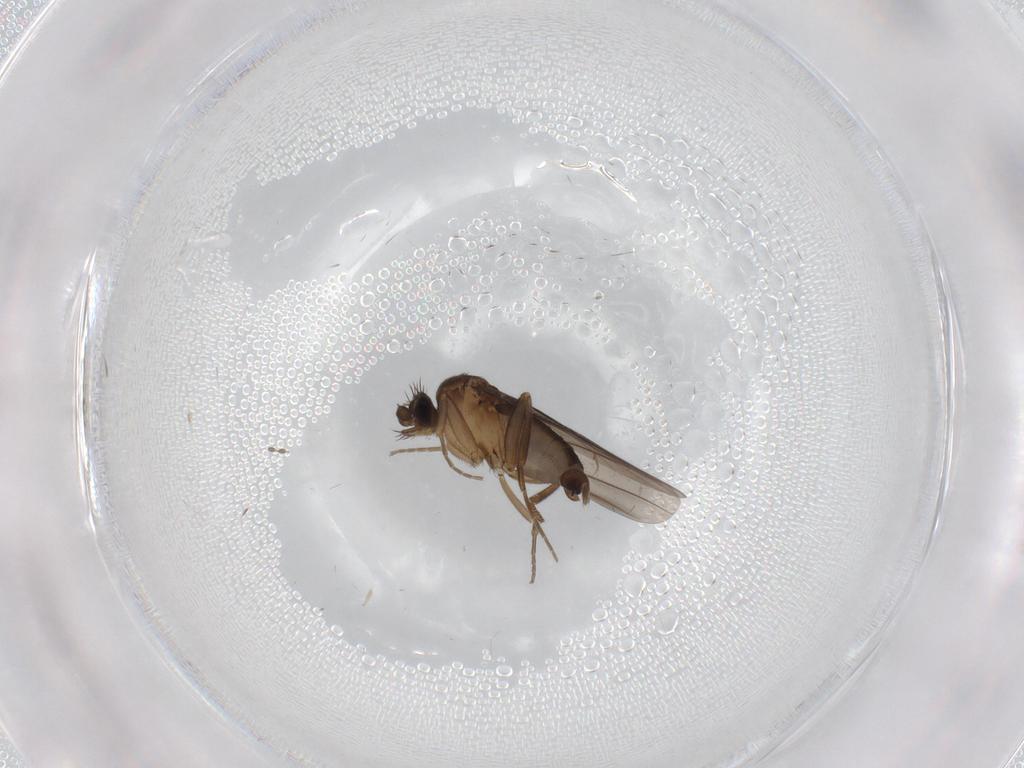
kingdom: Animalia
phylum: Arthropoda
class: Insecta
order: Diptera
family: Phoridae
